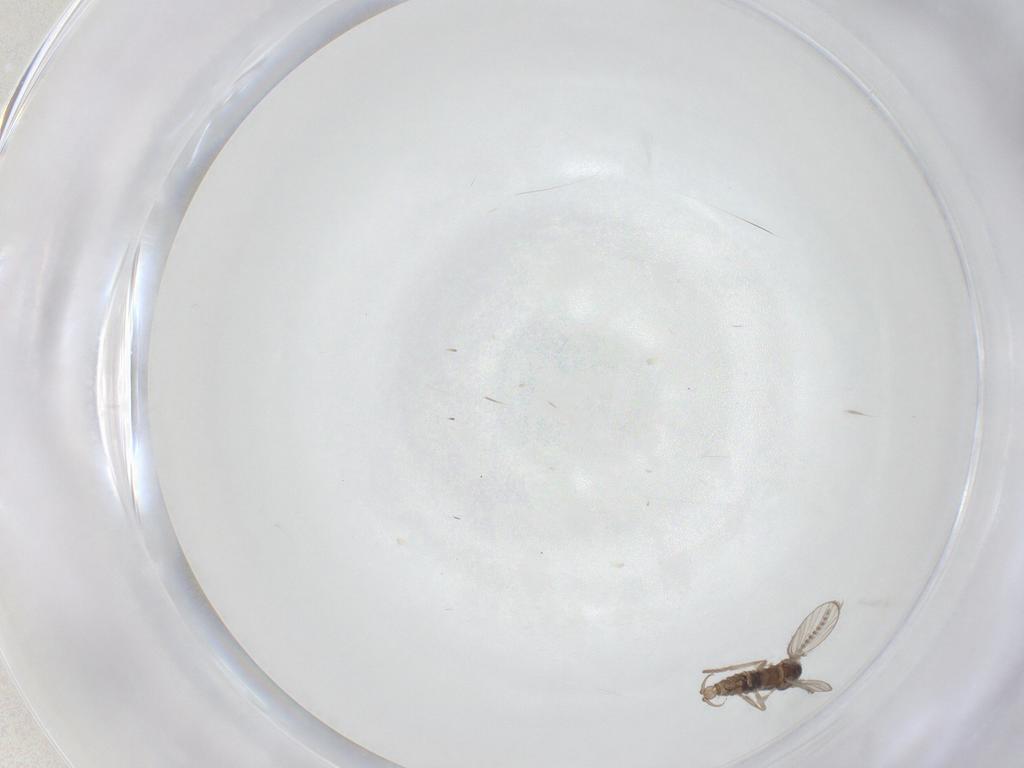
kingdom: Animalia
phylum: Arthropoda
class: Insecta
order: Diptera
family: Psychodidae
